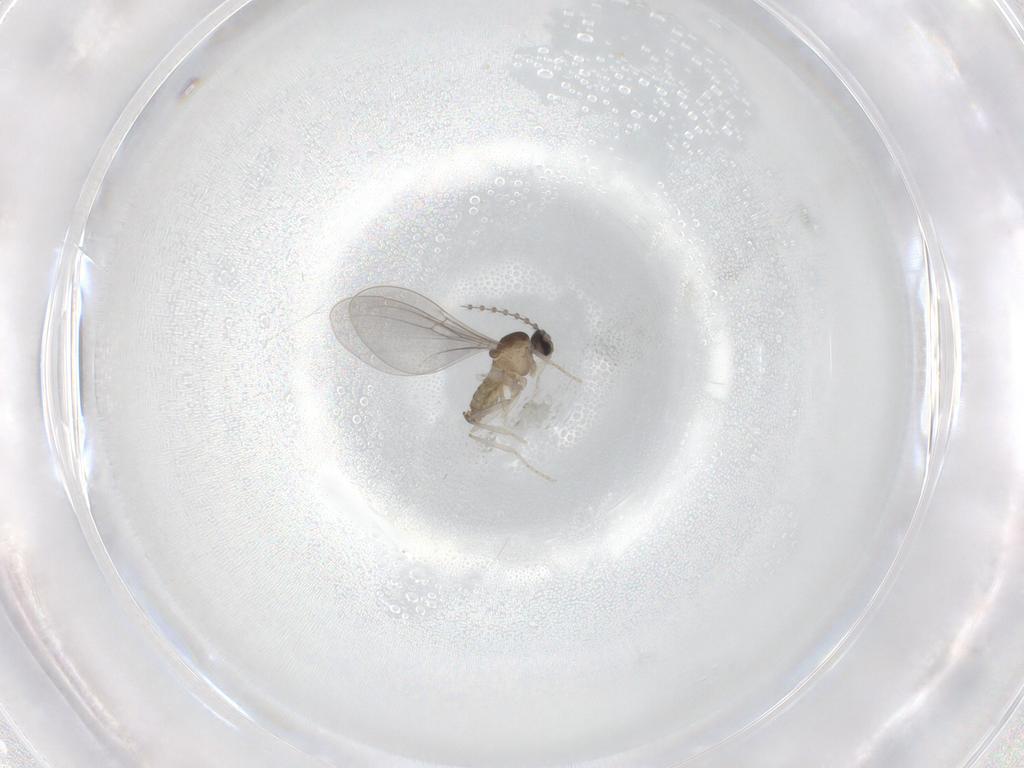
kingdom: Animalia
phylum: Arthropoda
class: Insecta
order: Diptera
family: Cecidomyiidae
